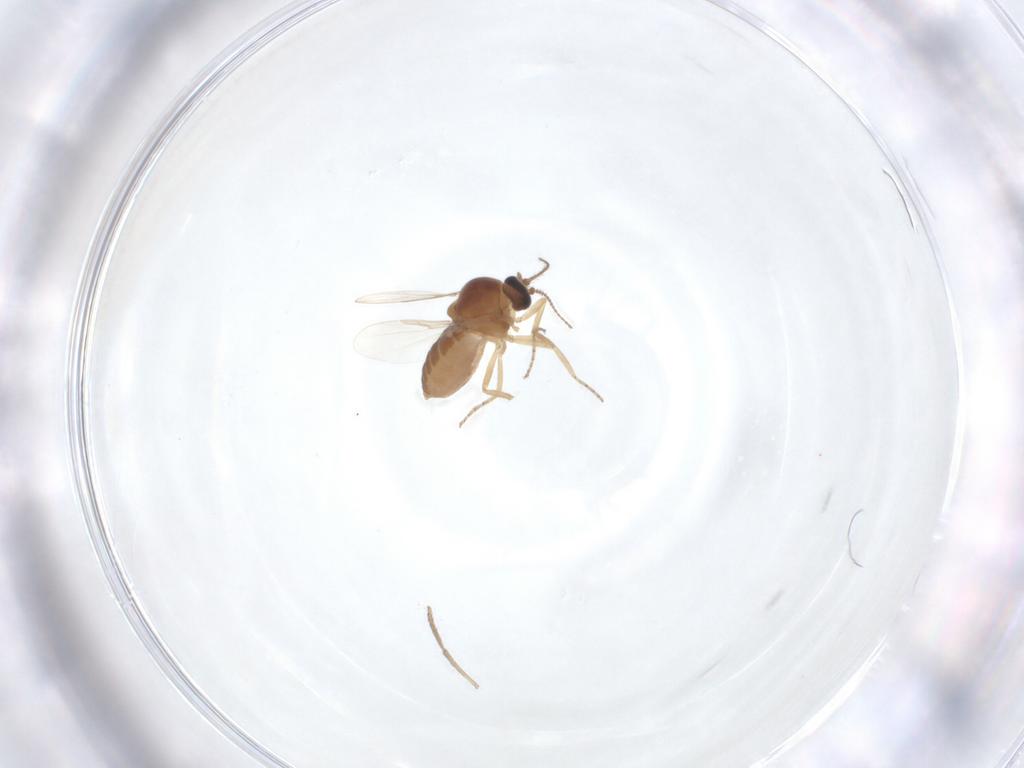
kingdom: Animalia
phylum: Arthropoda
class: Insecta
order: Diptera
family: Ceratopogonidae
